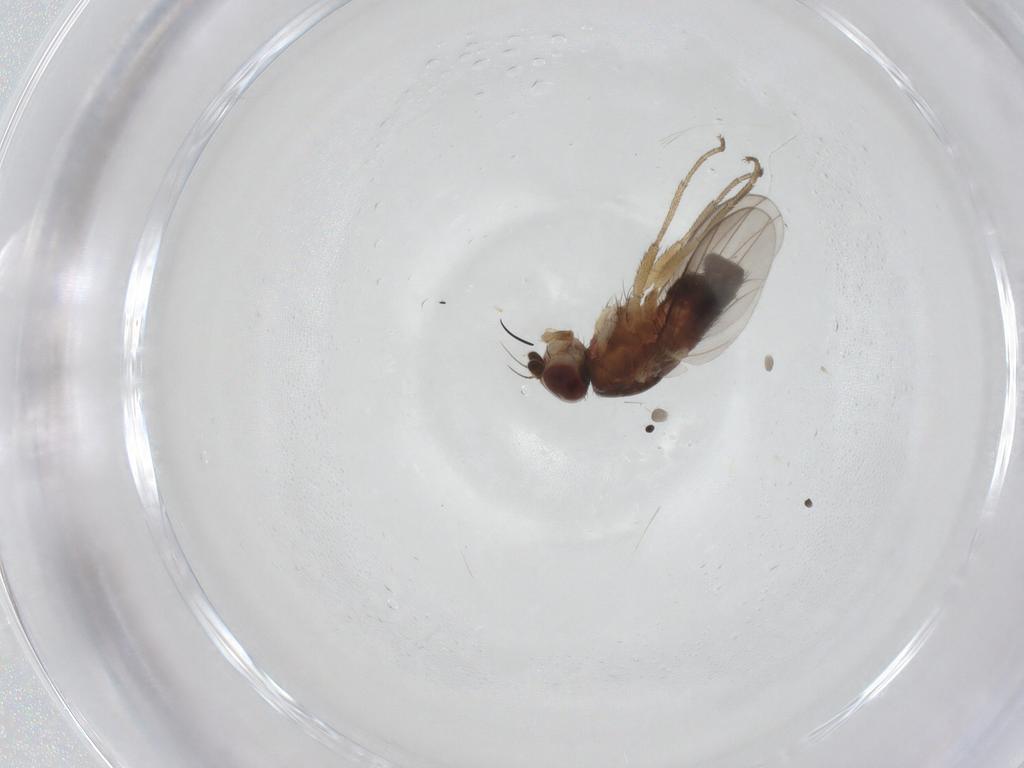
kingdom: Animalia
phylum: Arthropoda
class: Insecta
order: Diptera
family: Heleomyzidae
